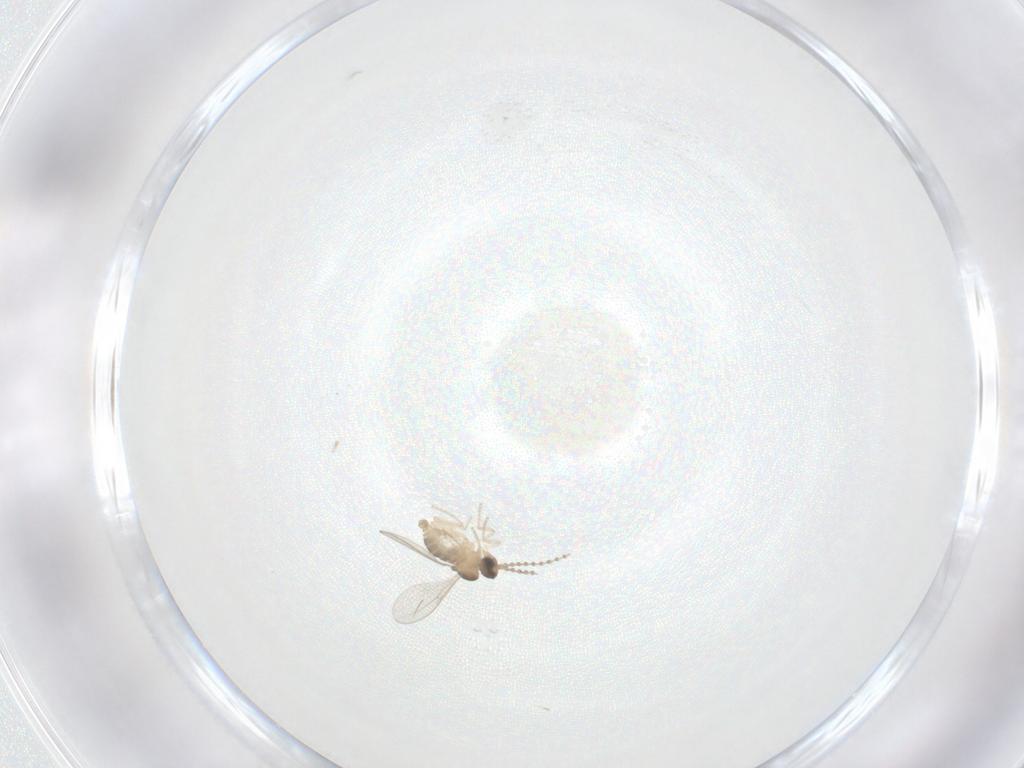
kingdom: Animalia
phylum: Arthropoda
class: Insecta
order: Diptera
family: Cecidomyiidae
